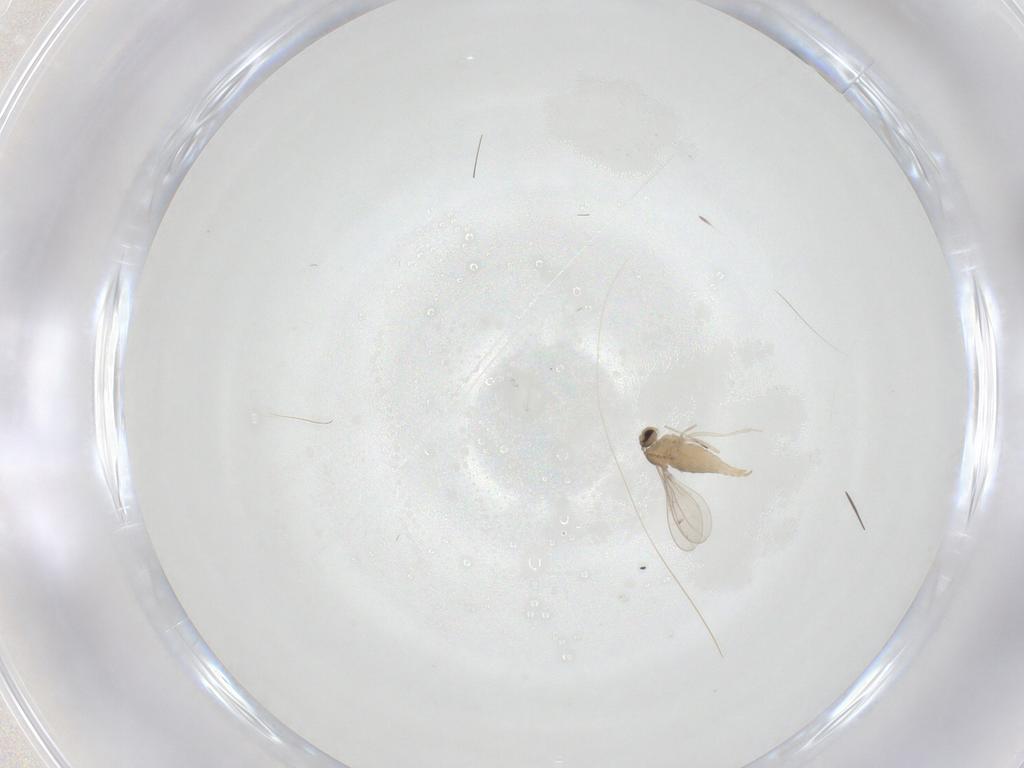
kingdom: Animalia
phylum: Arthropoda
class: Insecta
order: Diptera
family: Cecidomyiidae
